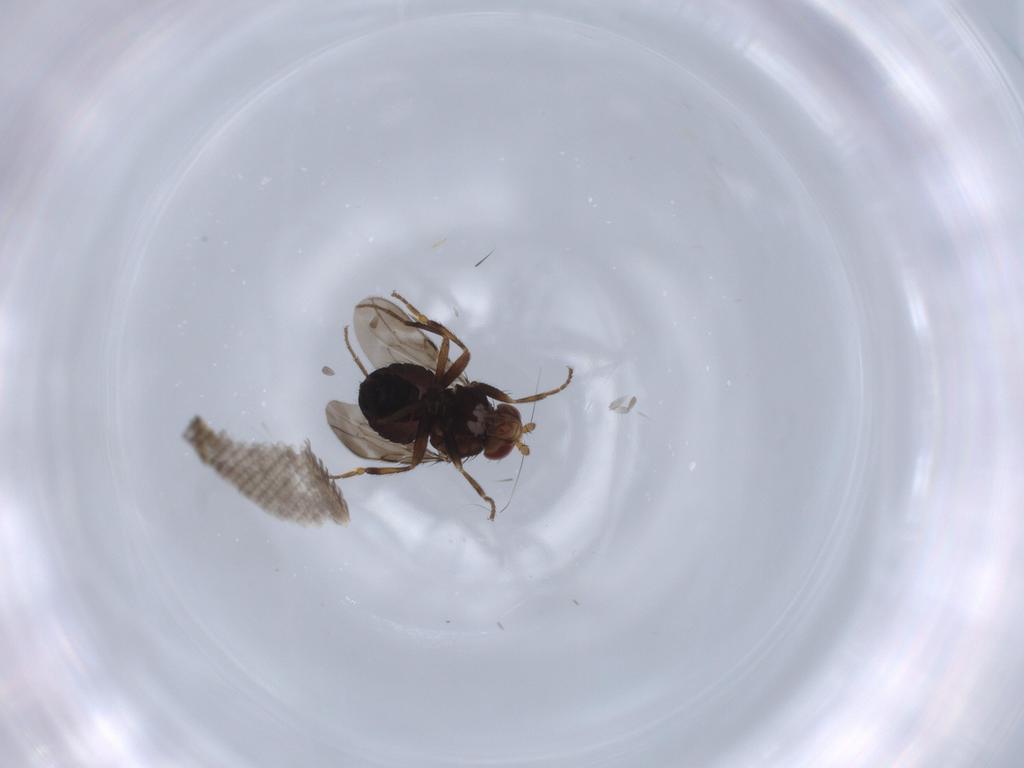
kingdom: Animalia
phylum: Arthropoda
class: Insecta
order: Diptera
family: Sphaeroceridae
